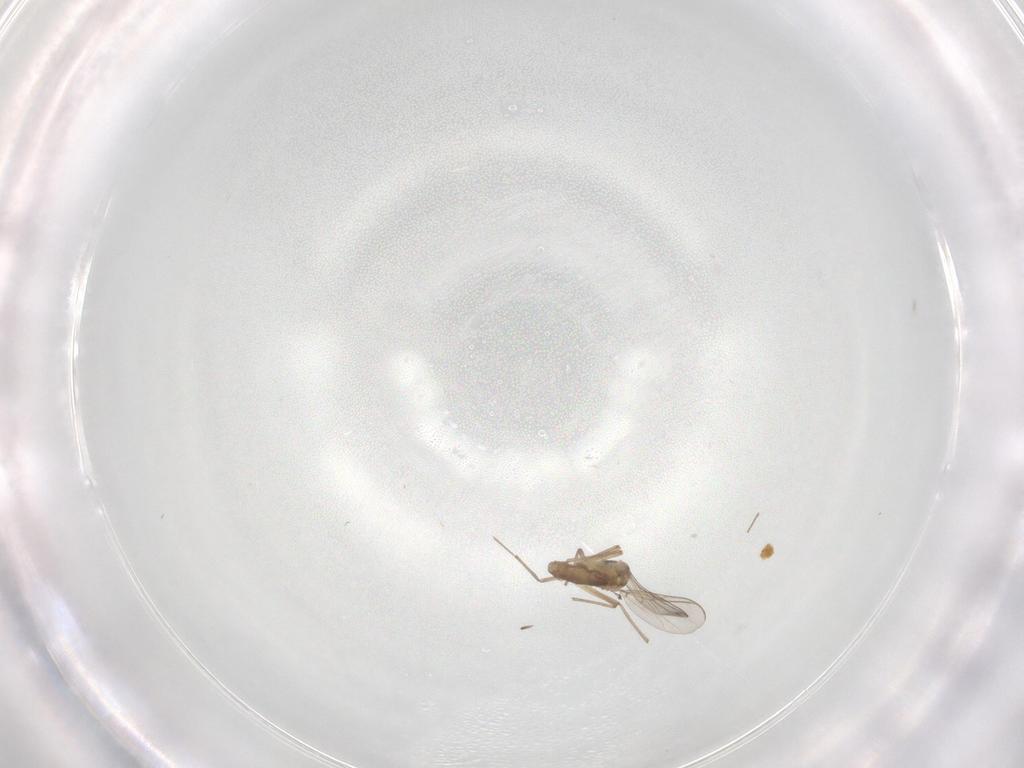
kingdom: Animalia
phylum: Arthropoda
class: Insecta
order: Diptera
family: Chironomidae
